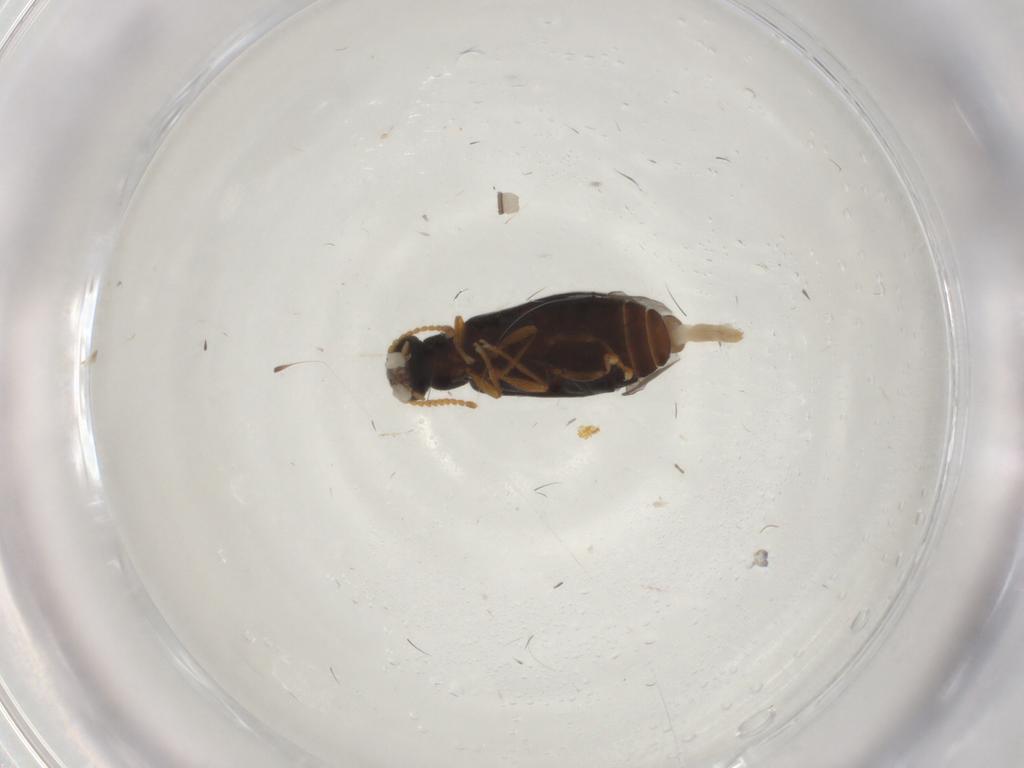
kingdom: Animalia
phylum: Arthropoda
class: Insecta
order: Coleoptera
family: Mycteridae
